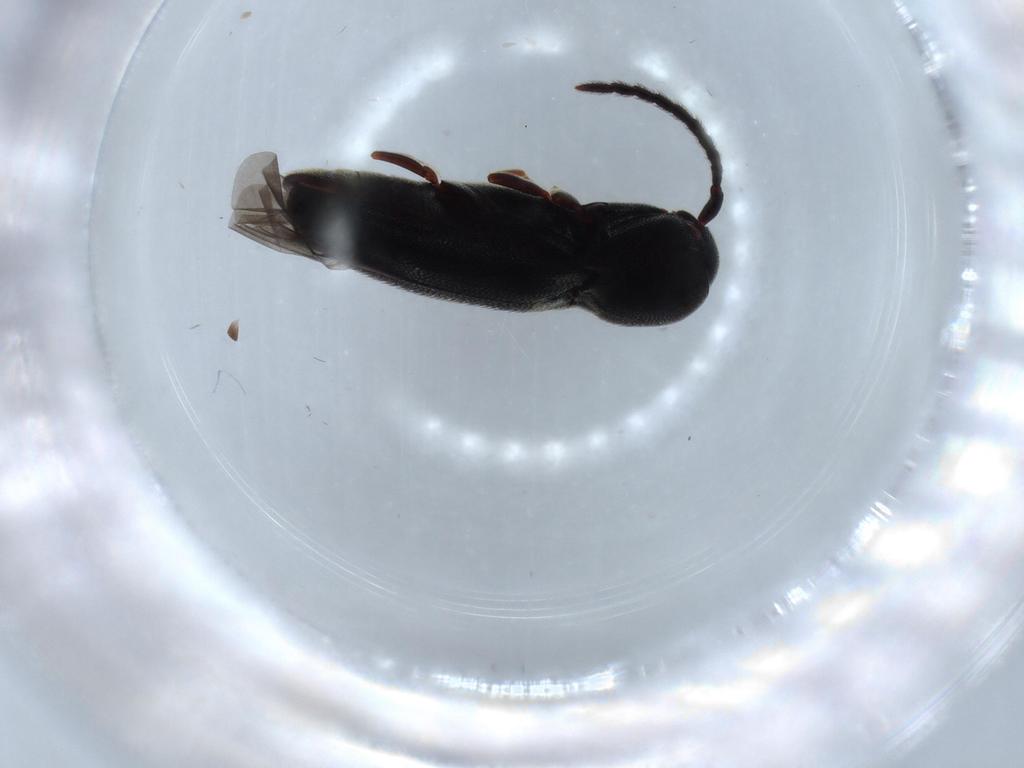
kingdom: Animalia
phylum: Arthropoda
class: Insecta
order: Coleoptera
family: Eucnemidae
